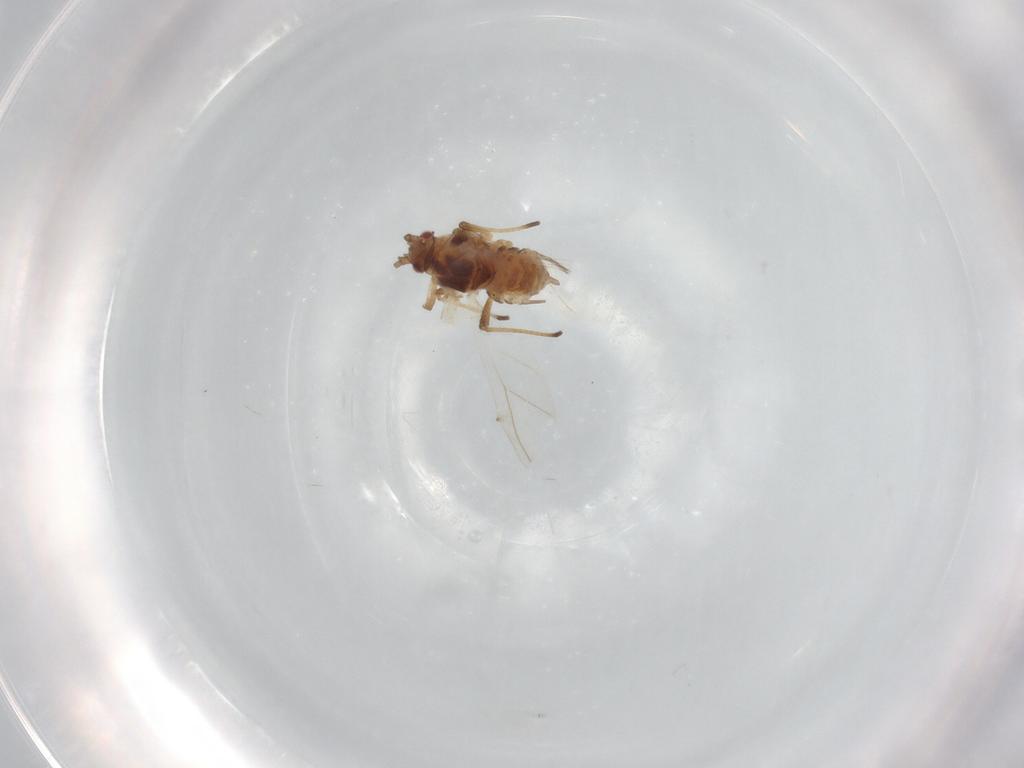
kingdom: Animalia
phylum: Arthropoda
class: Insecta
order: Hemiptera
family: Aphididae
